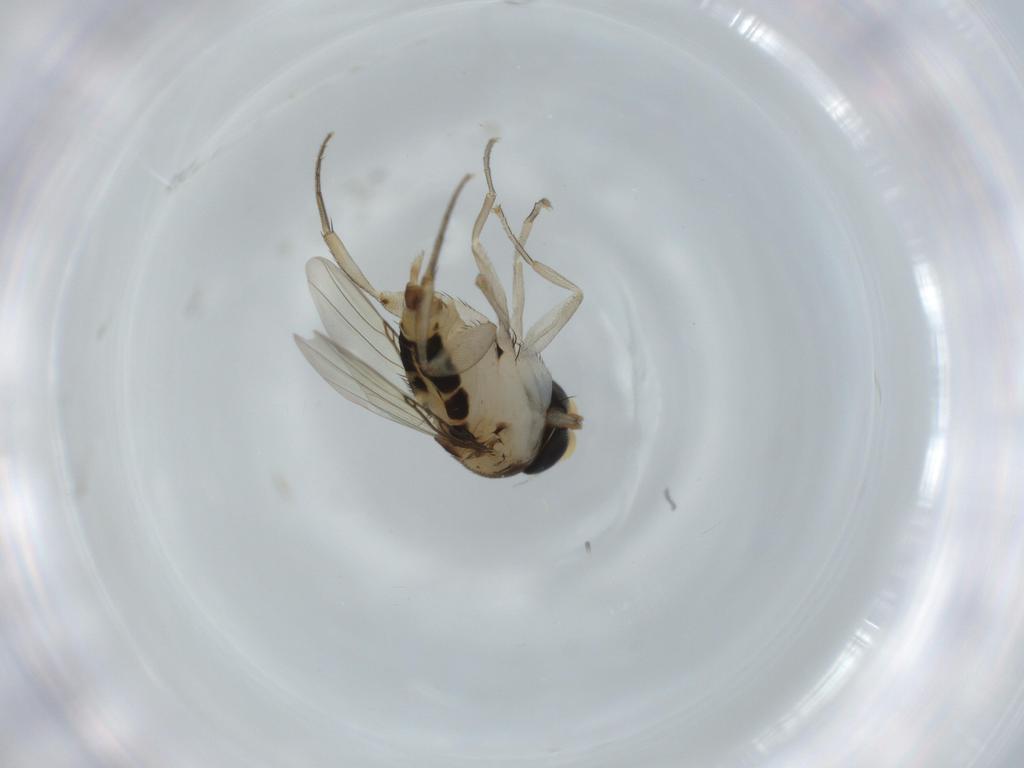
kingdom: Animalia
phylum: Arthropoda
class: Insecta
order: Diptera
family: Phoridae
